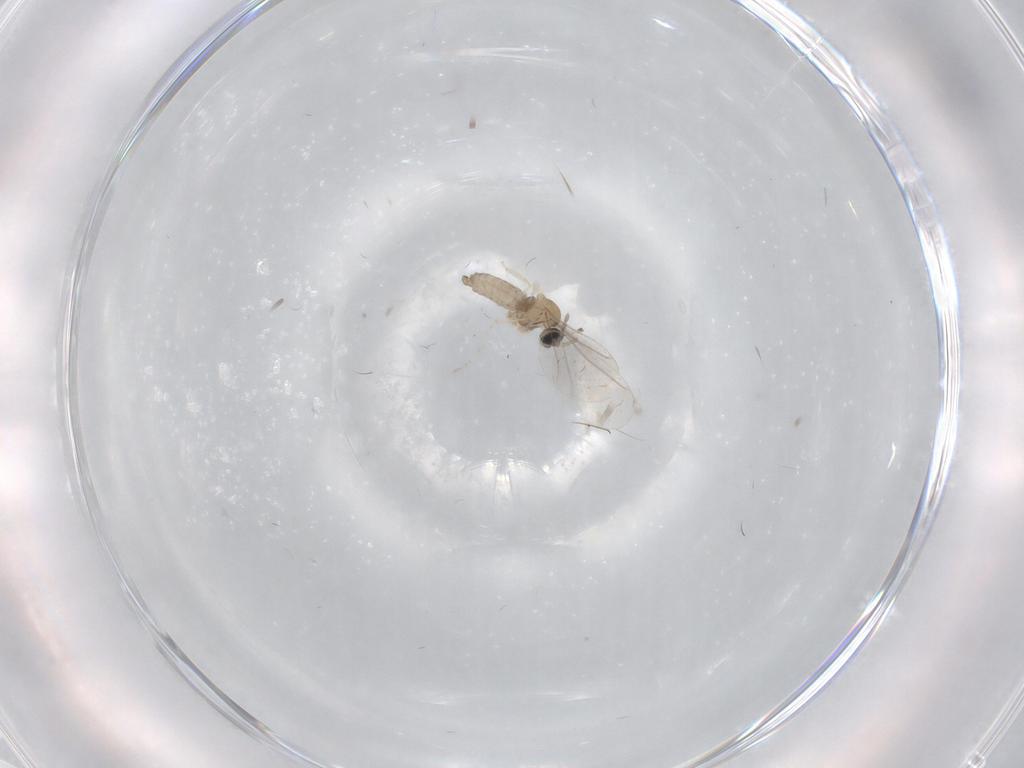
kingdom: Animalia
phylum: Arthropoda
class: Insecta
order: Diptera
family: Cecidomyiidae
